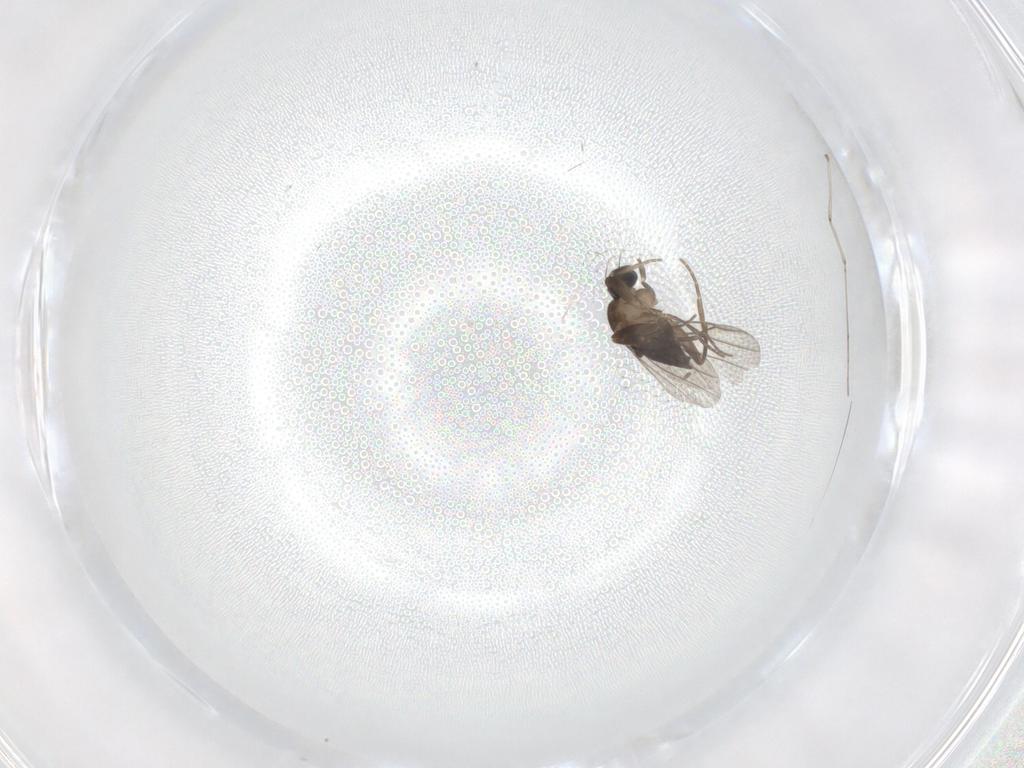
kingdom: Animalia
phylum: Arthropoda
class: Insecta
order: Diptera
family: Cecidomyiidae
